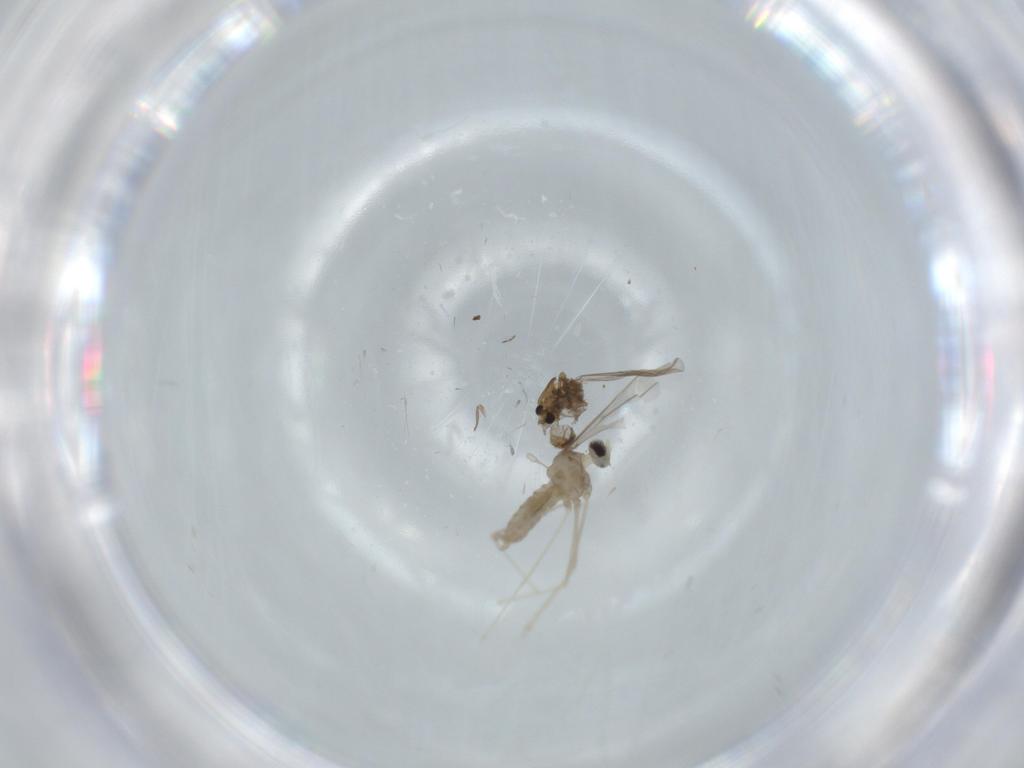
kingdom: Animalia
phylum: Arthropoda
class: Insecta
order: Diptera
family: Chironomidae
